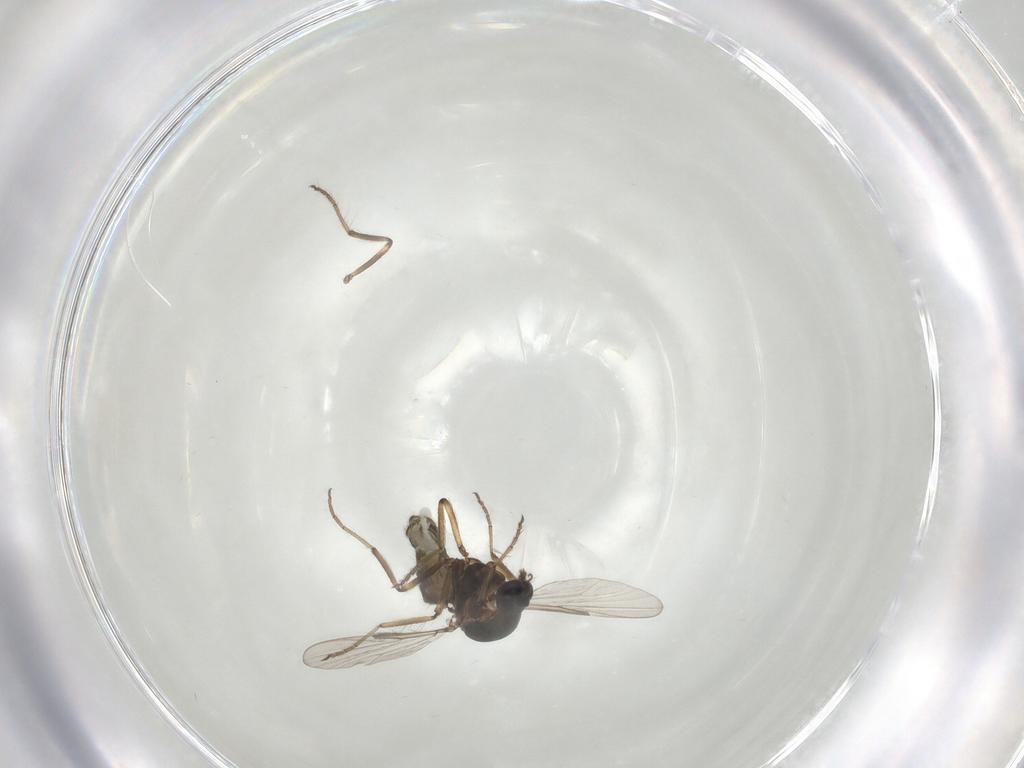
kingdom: Animalia
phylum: Arthropoda
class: Insecta
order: Diptera
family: Ceratopogonidae
